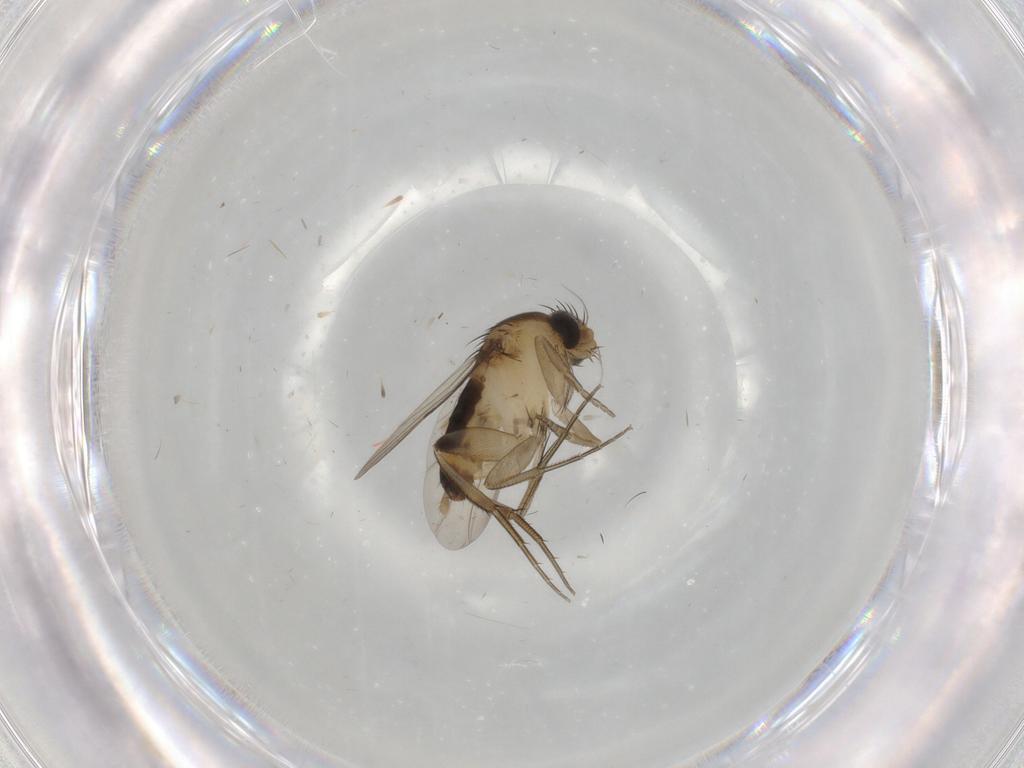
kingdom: Animalia
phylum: Arthropoda
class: Insecta
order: Diptera
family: Phoridae
